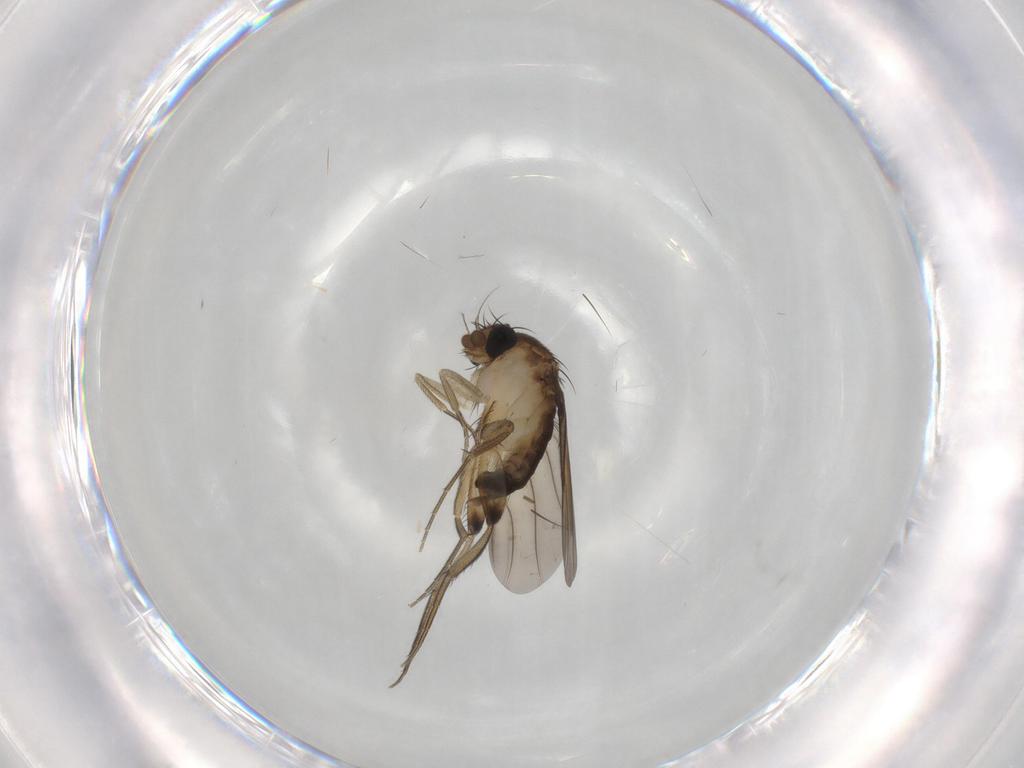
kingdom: Animalia
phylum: Arthropoda
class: Insecta
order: Diptera
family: Phoridae
